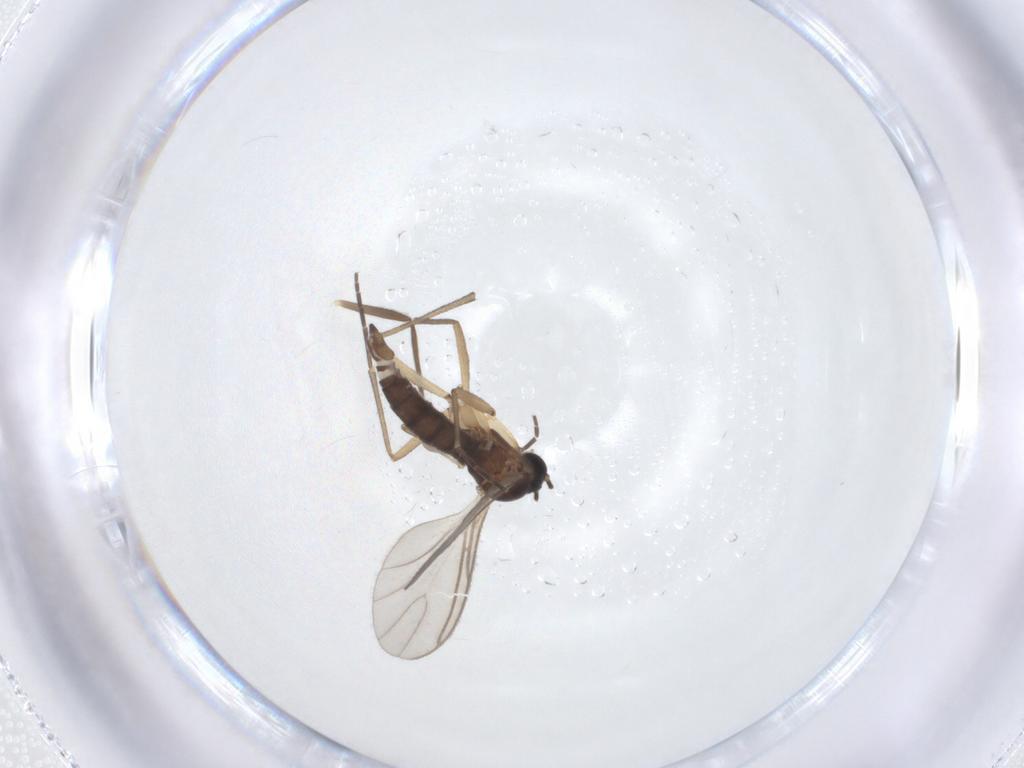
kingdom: Animalia
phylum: Arthropoda
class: Insecta
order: Diptera
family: Sciaridae
